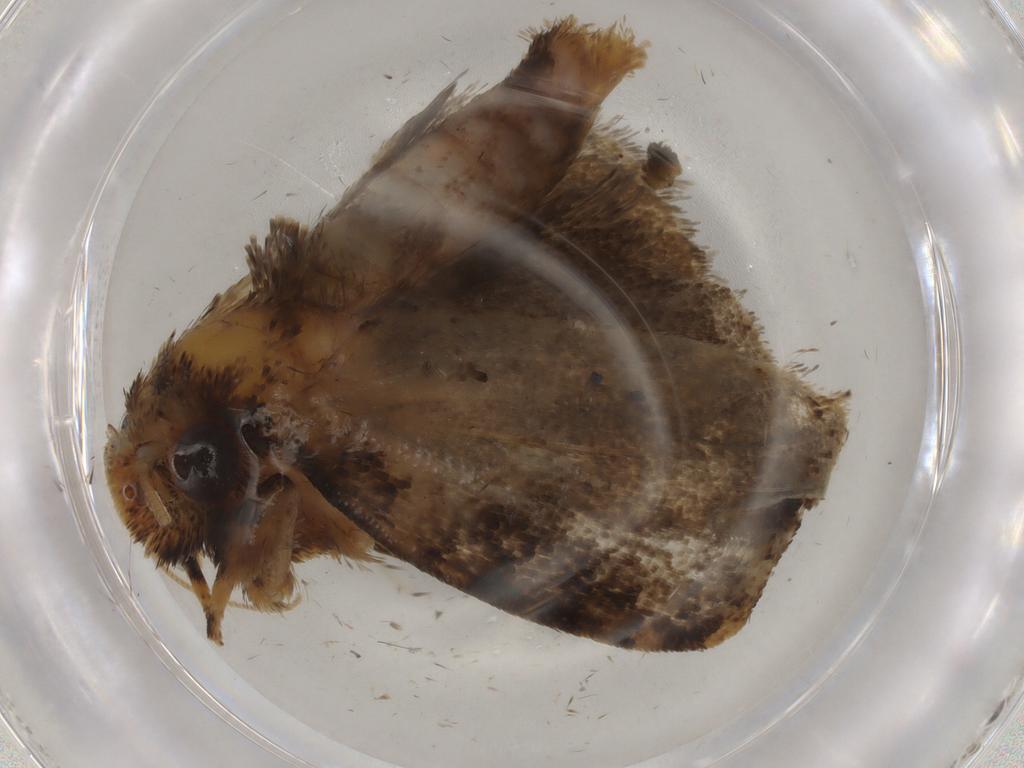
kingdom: Animalia
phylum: Arthropoda
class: Insecta
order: Lepidoptera
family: Tineidae
